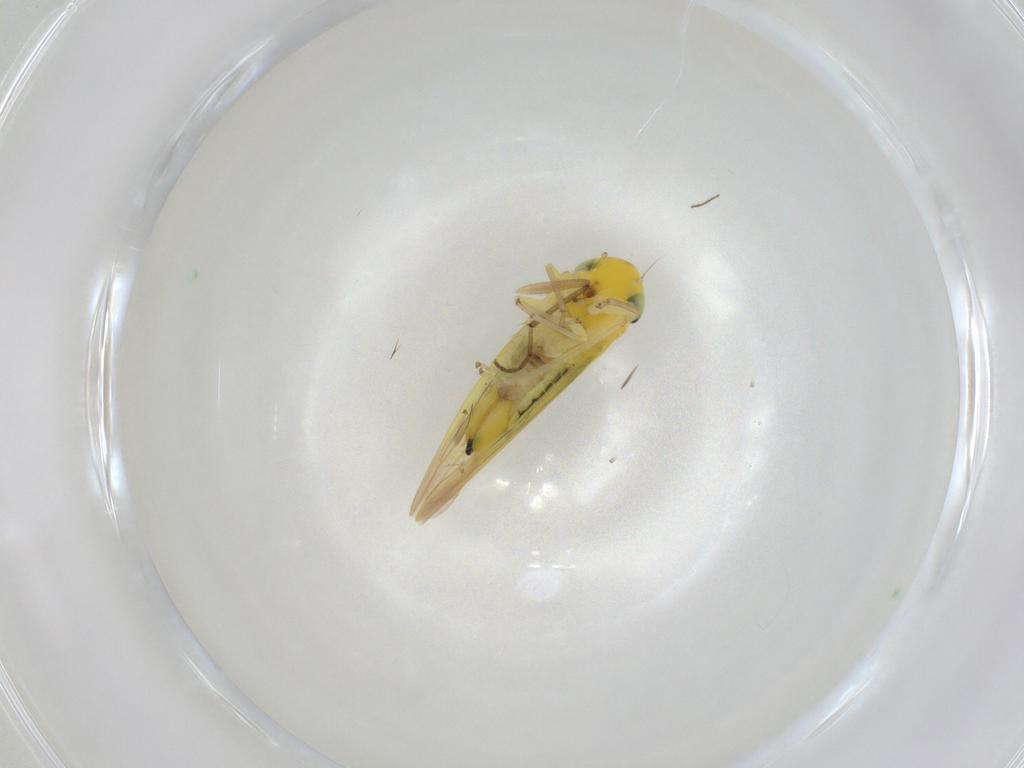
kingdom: Animalia
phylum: Arthropoda
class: Insecta
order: Hemiptera
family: Cicadellidae
